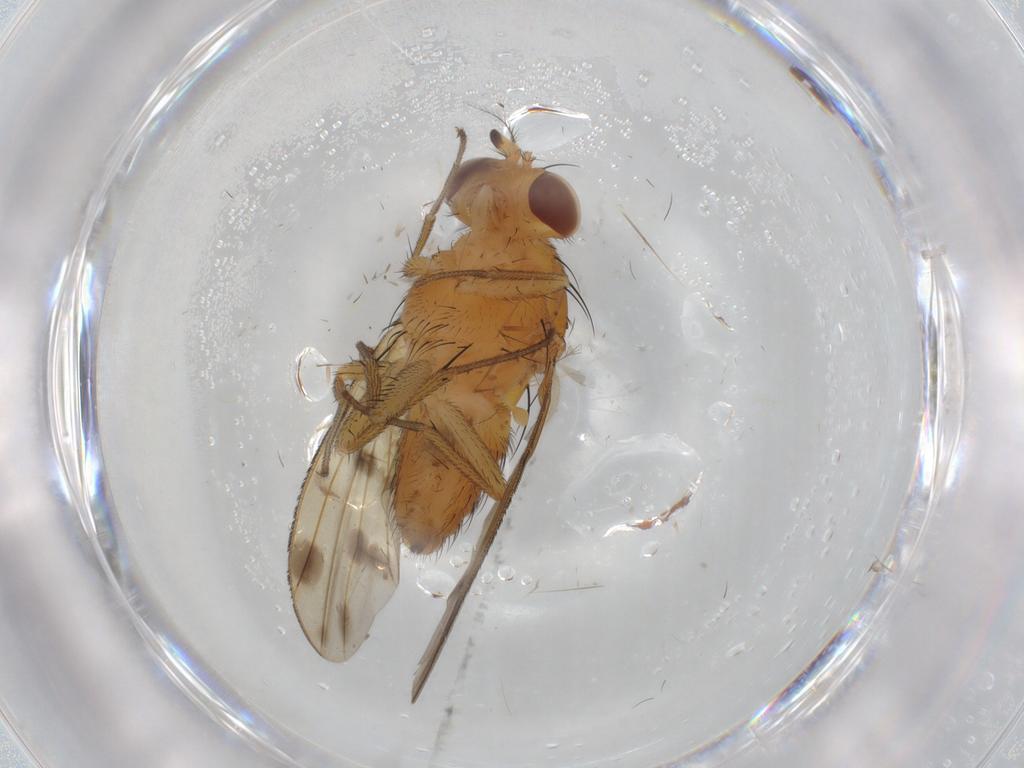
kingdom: Animalia
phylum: Arthropoda
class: Insecta
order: Diptera
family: Lauxaniidae
